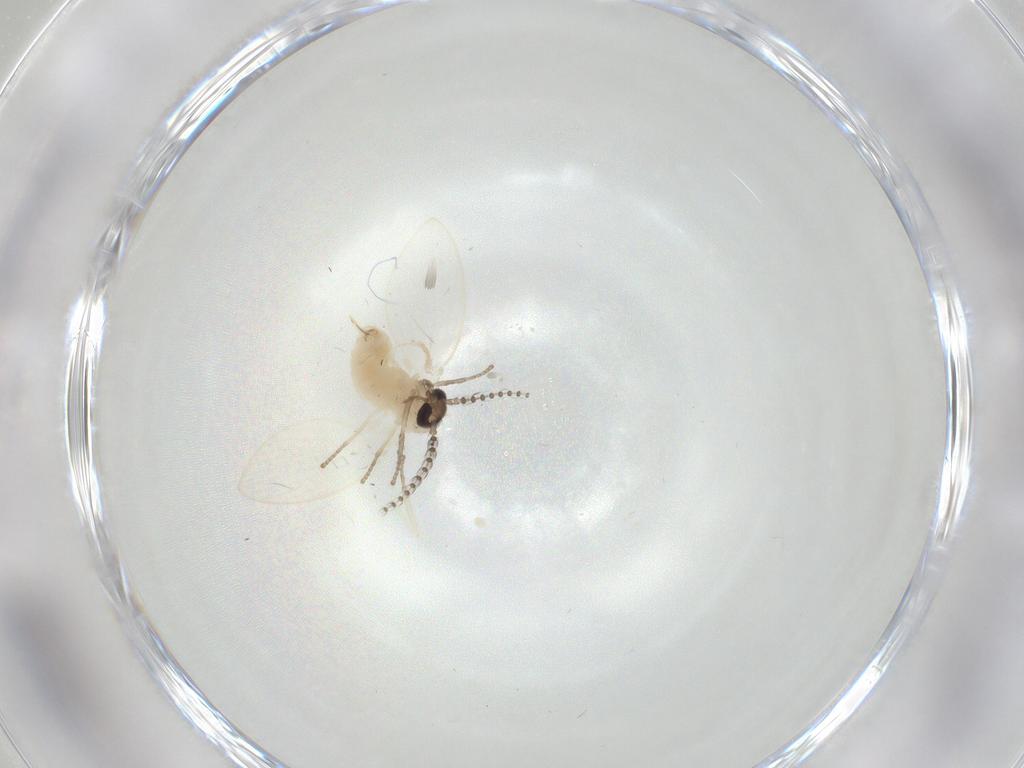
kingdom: Animalia
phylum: Arthropoda
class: Insecta
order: Diptera
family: Psychodidae
